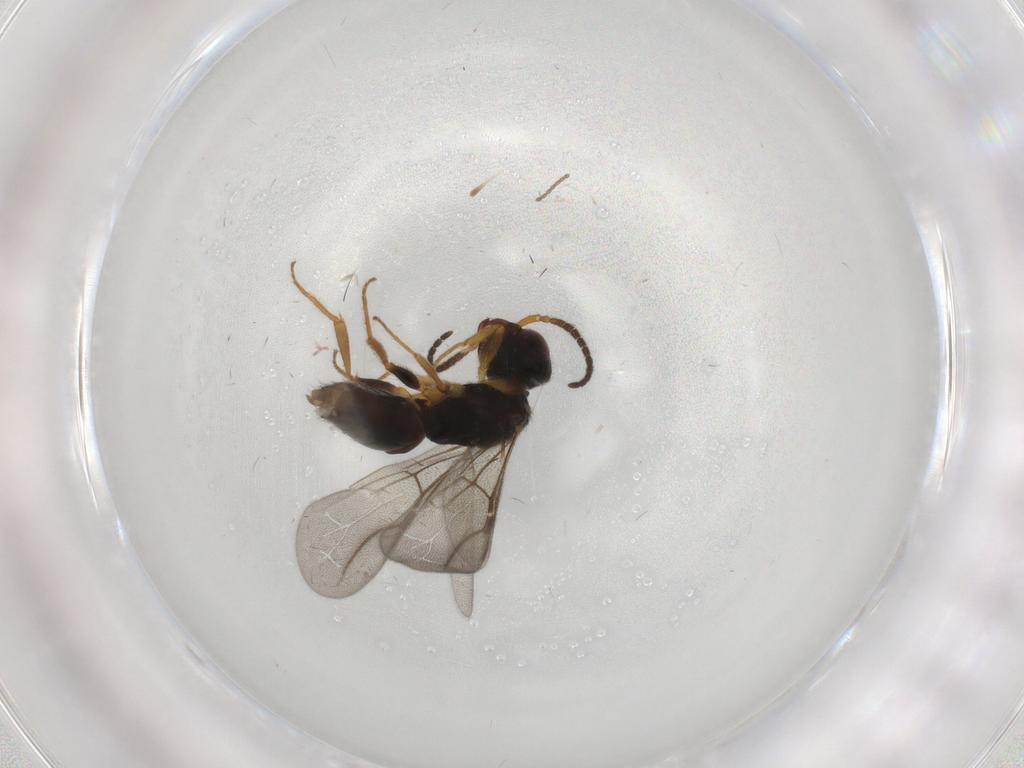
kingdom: Animalia
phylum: Arthropoda
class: Insecta
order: Hymenoptera
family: Bethylidae
